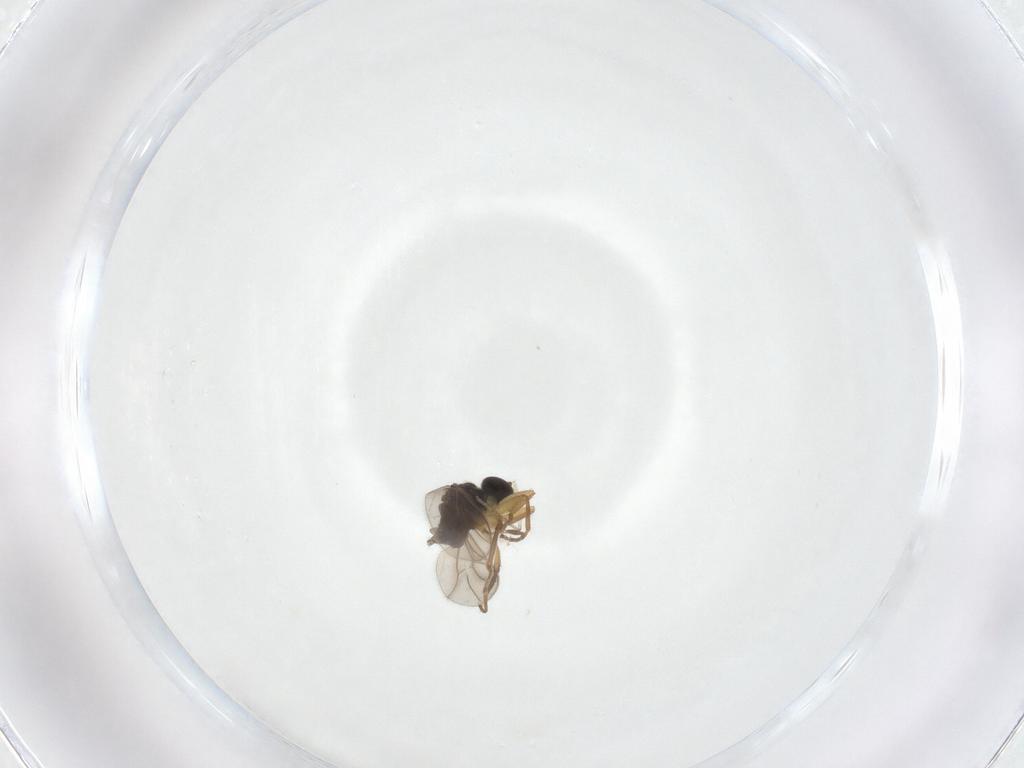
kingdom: Animalia
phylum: Arthropoda
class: Insecta
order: Diptera
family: Hybotidae
